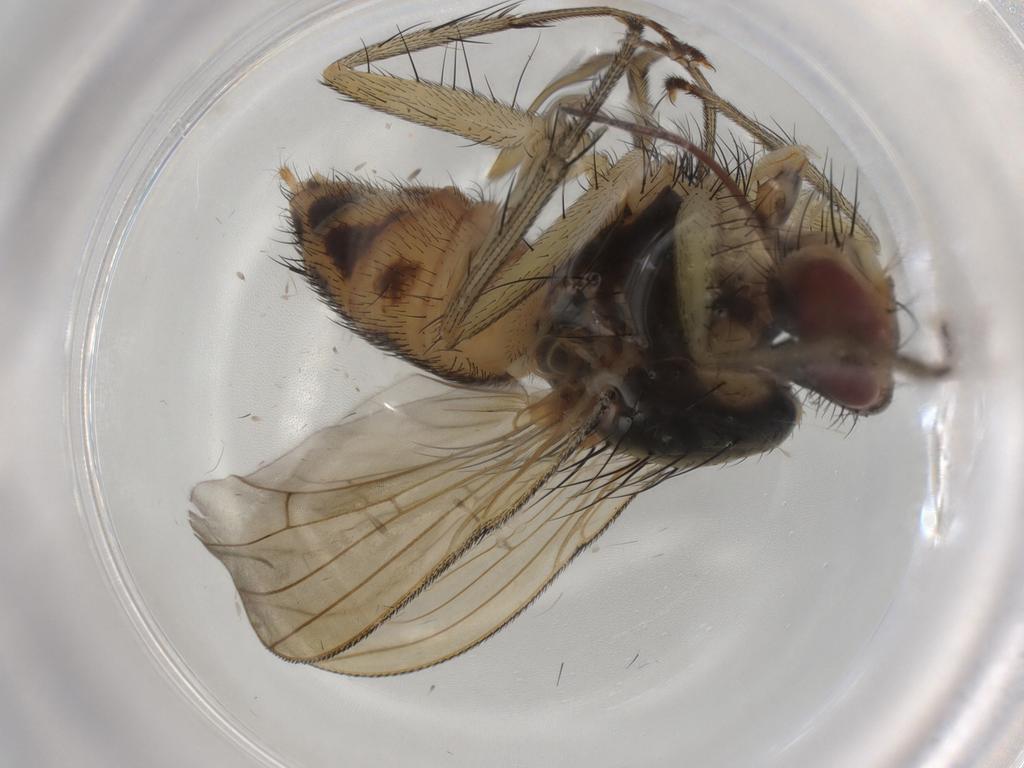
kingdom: Animalia
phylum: Arthropoda
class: Insecta
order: Diptera
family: Muscidae
